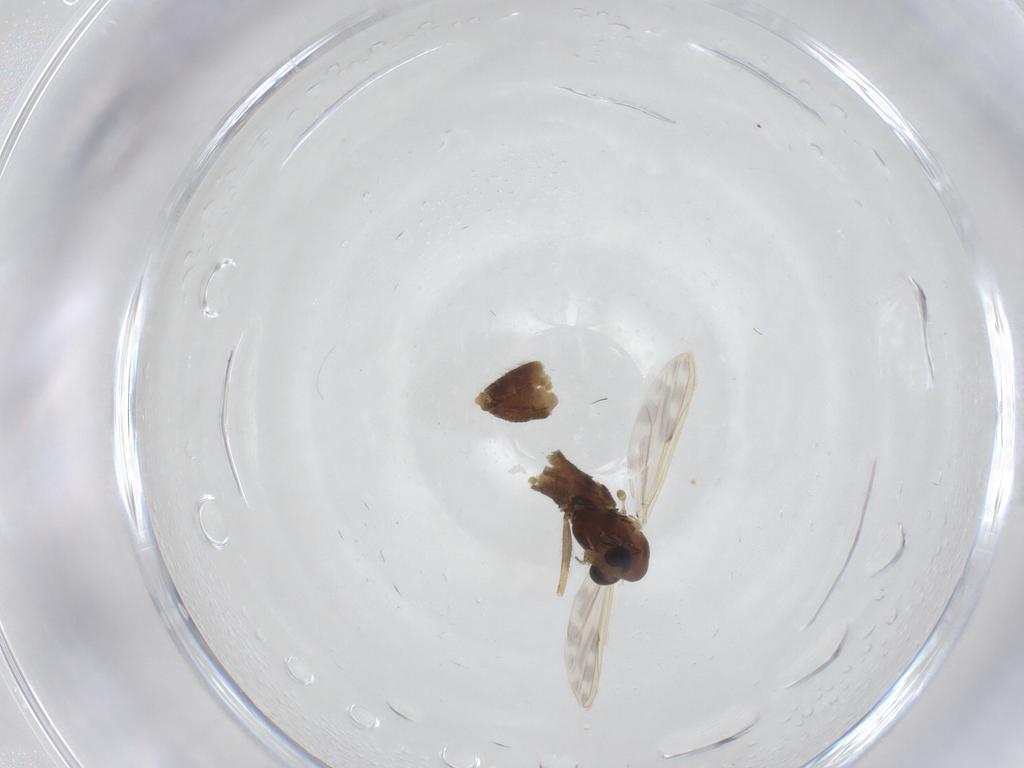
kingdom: Animalia
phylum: Arthropoda
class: Insecta
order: Diptera
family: Chironomidae
